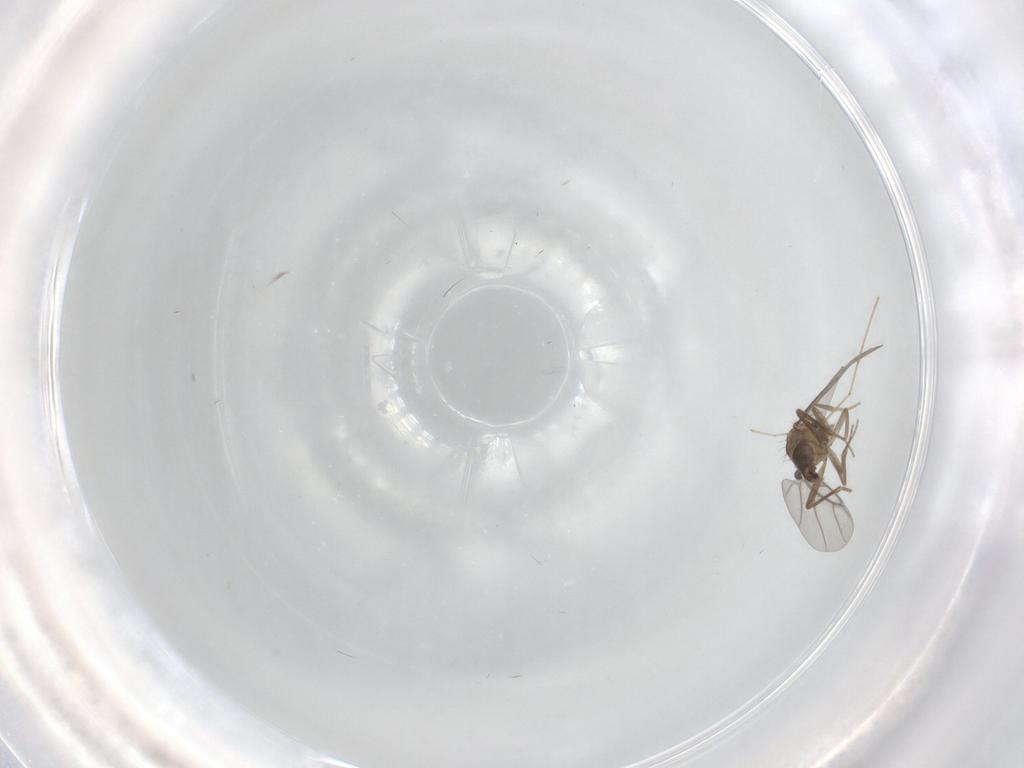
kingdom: Animalia
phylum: Arthropoda
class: Insecta
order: Diptera
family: Cecidomyiidae
